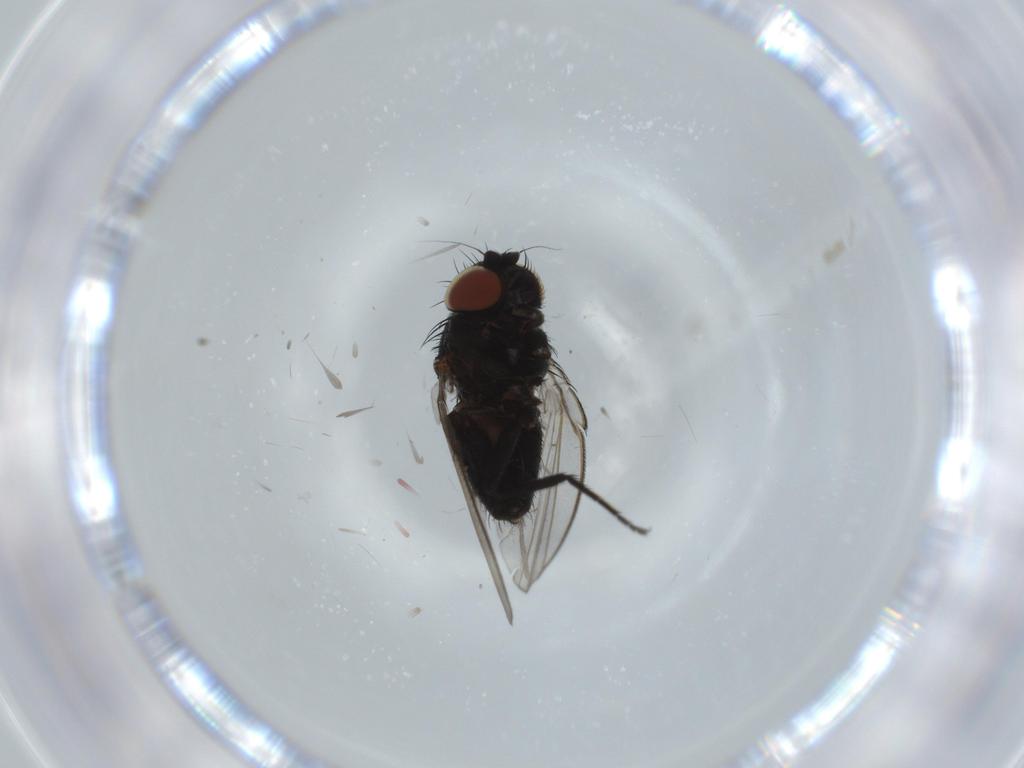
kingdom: Animalia
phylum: Arthropoda
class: Insecta
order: Diptera
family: Phoridae
